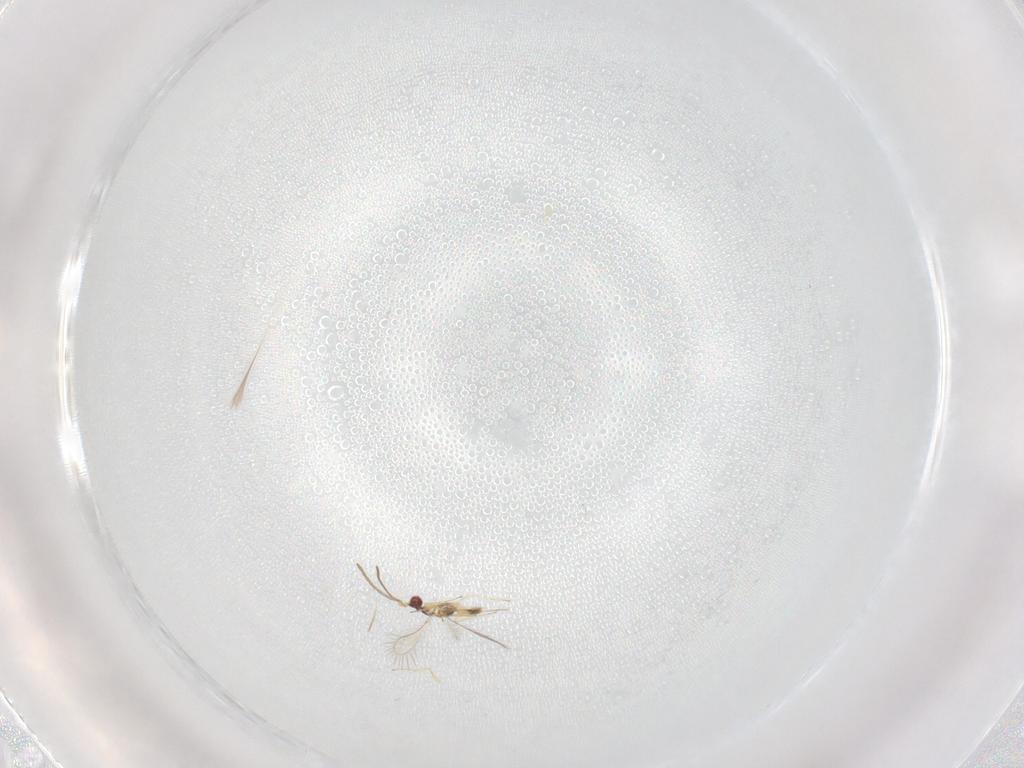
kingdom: Animalia
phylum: Arthropoda
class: Insecta
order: Hymenoptera
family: Mymaridae
